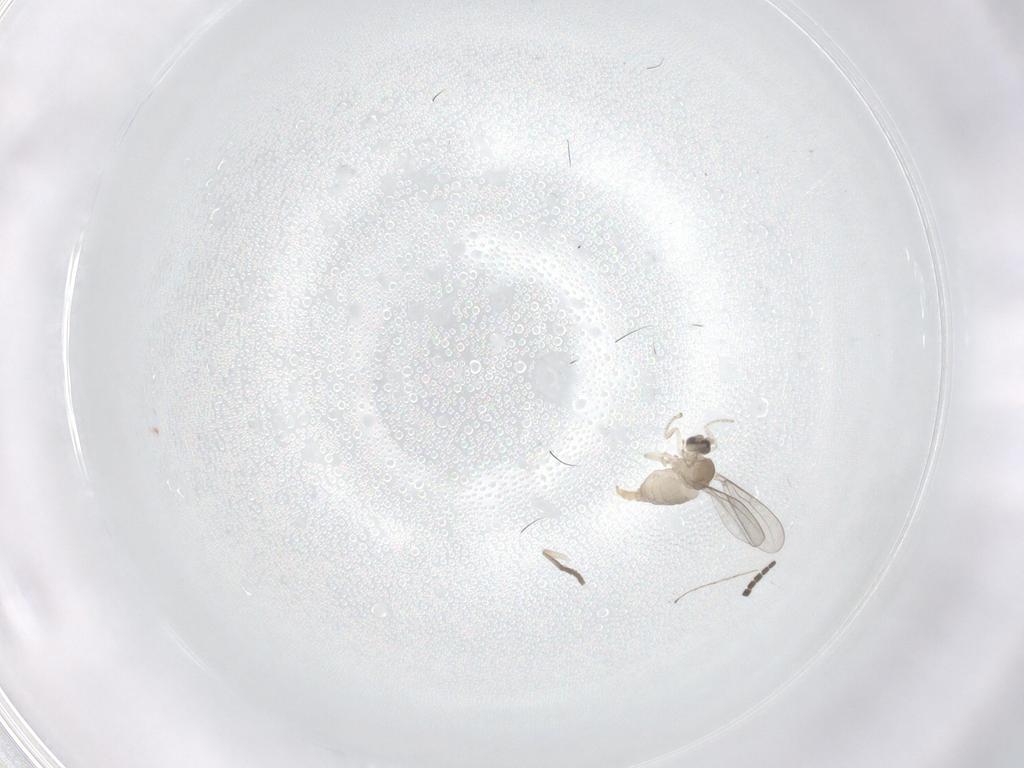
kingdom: Animalia
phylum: Arthropoda
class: Insecta
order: Diptera
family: Cecidomyiidae
